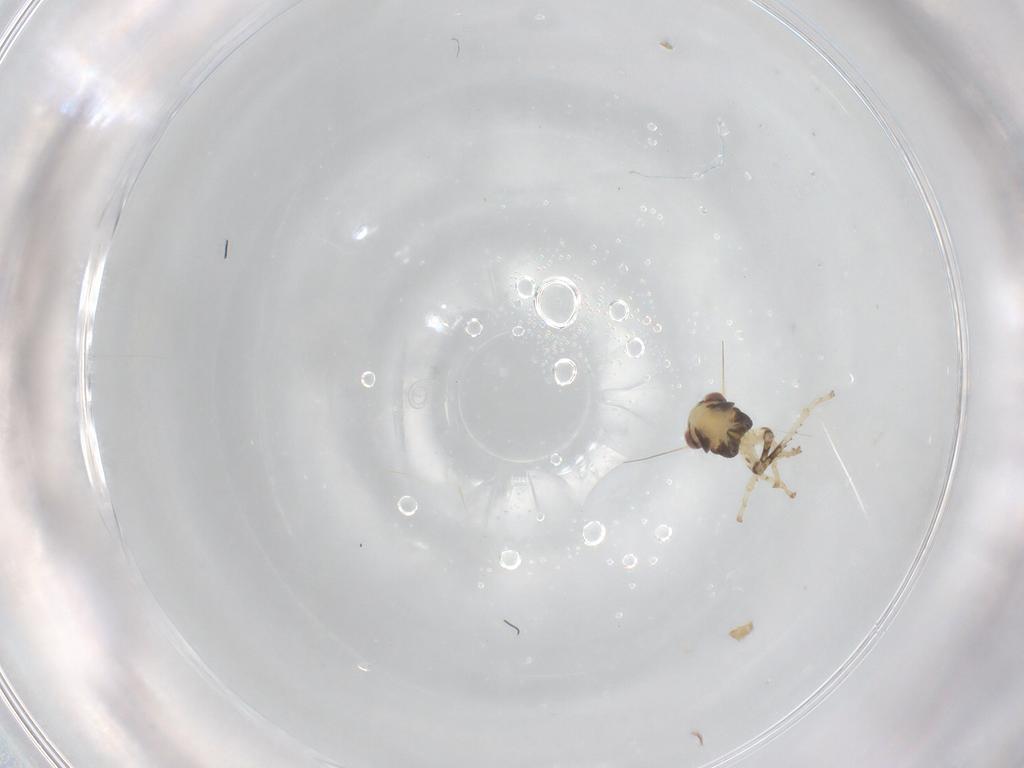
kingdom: Animalia
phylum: Arthropoda
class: Insecta
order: Hemiptera
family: Cicadellidae
